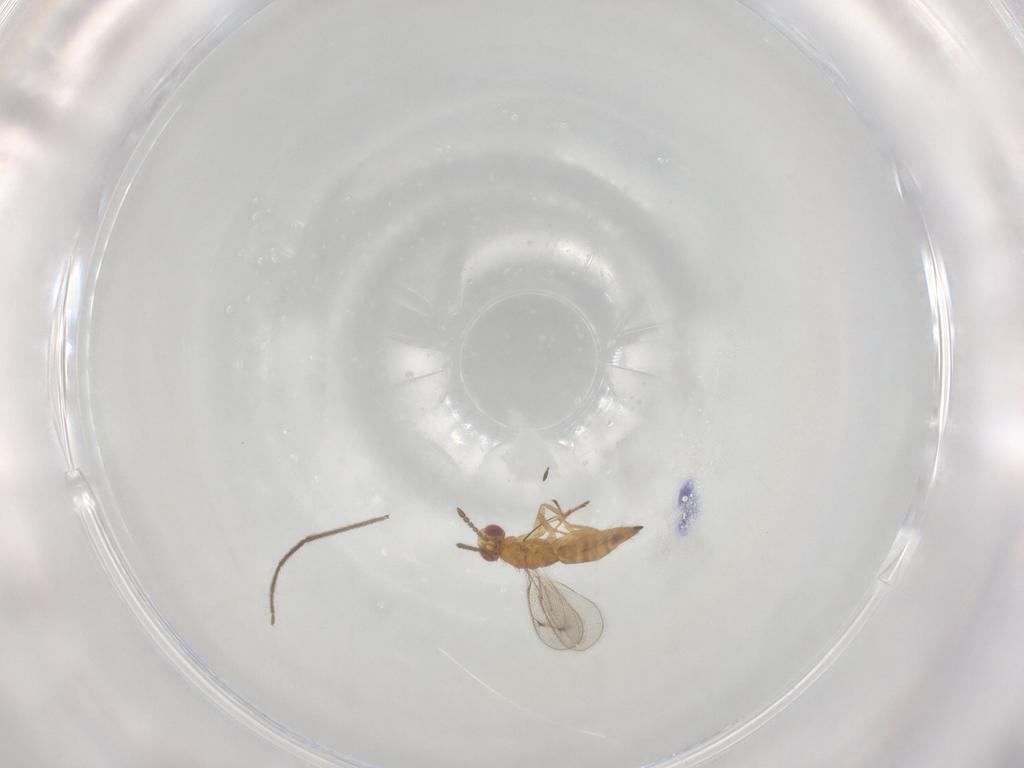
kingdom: Animalia
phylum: Arthropoda
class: Insecta
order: Hymenoptera
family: Eulophidae
